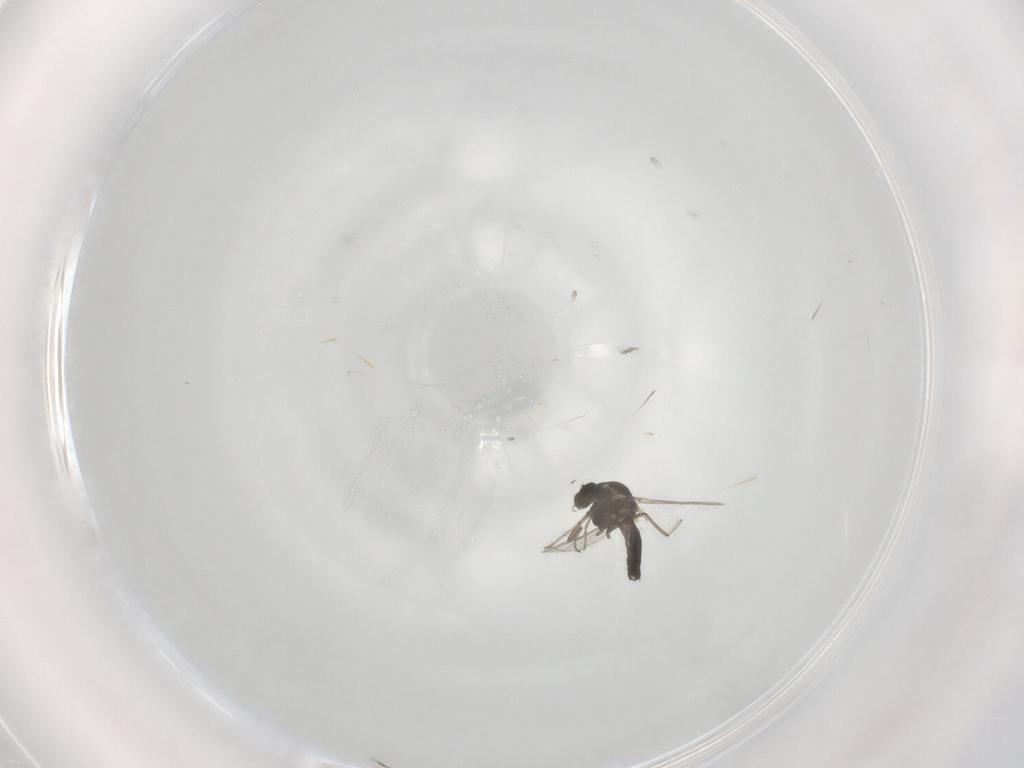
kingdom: Animalia
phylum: Arthropoda
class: Insecta
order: Diptera
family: Ceratopogonidae
